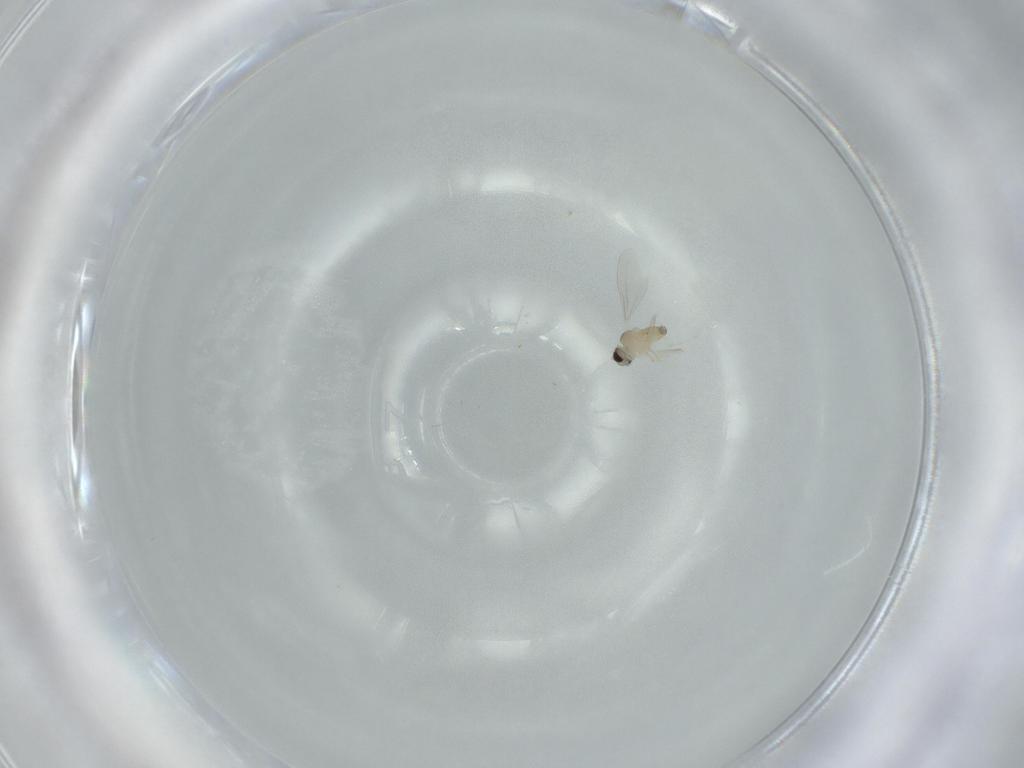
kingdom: Animalia
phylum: Arthropoda
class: Insecta
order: Diptera
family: Cecidomyiidae
